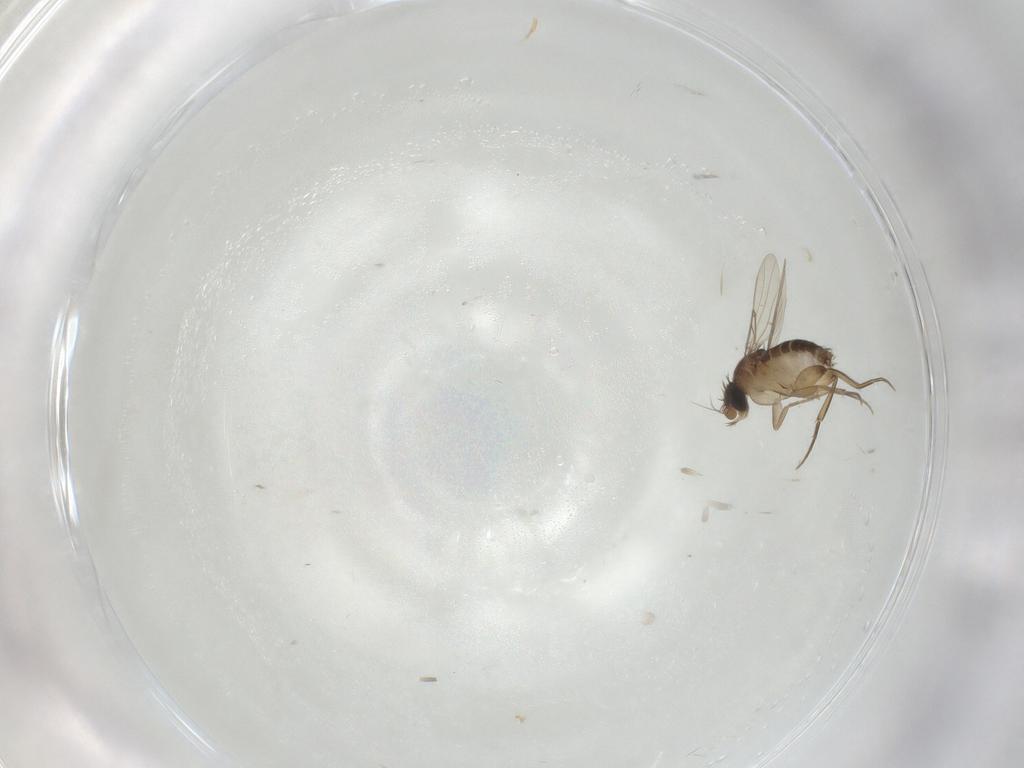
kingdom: Animalia
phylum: Arthropoda
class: Insecta
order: Diptera
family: Phoridae
